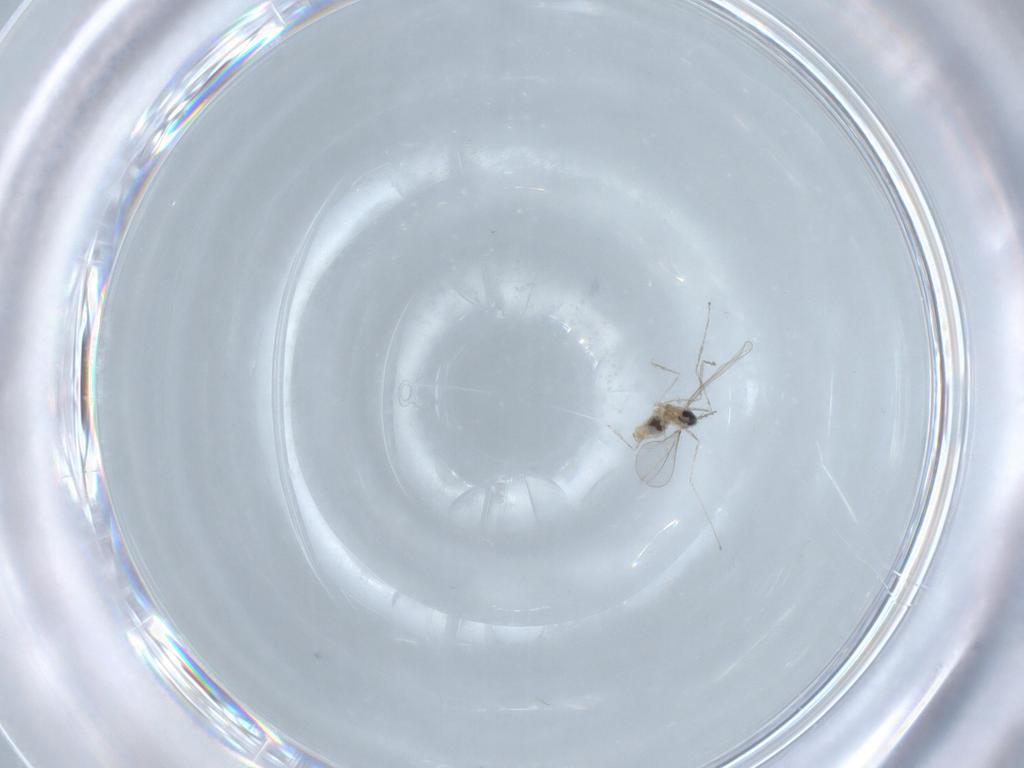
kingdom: Animalia
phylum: Arthropoda
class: Insecta
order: Diptera
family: Cecidomyiidae
